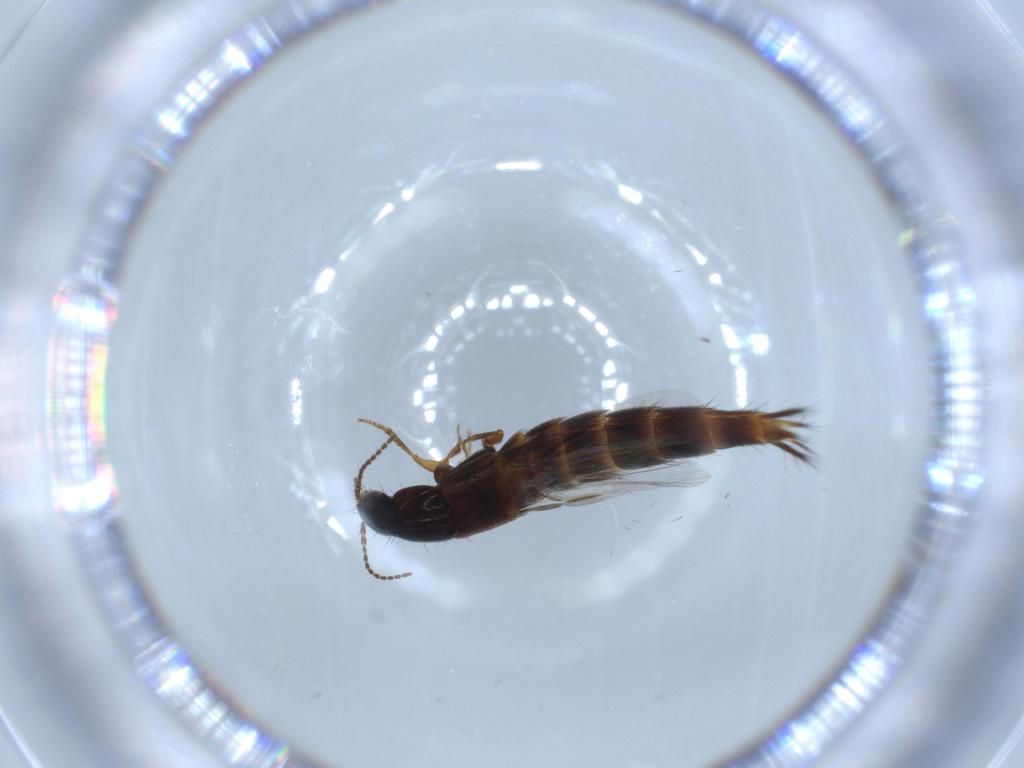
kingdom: Animalia
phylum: Arthropoda
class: Insecta
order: Coleoptera
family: Staphylinidae
